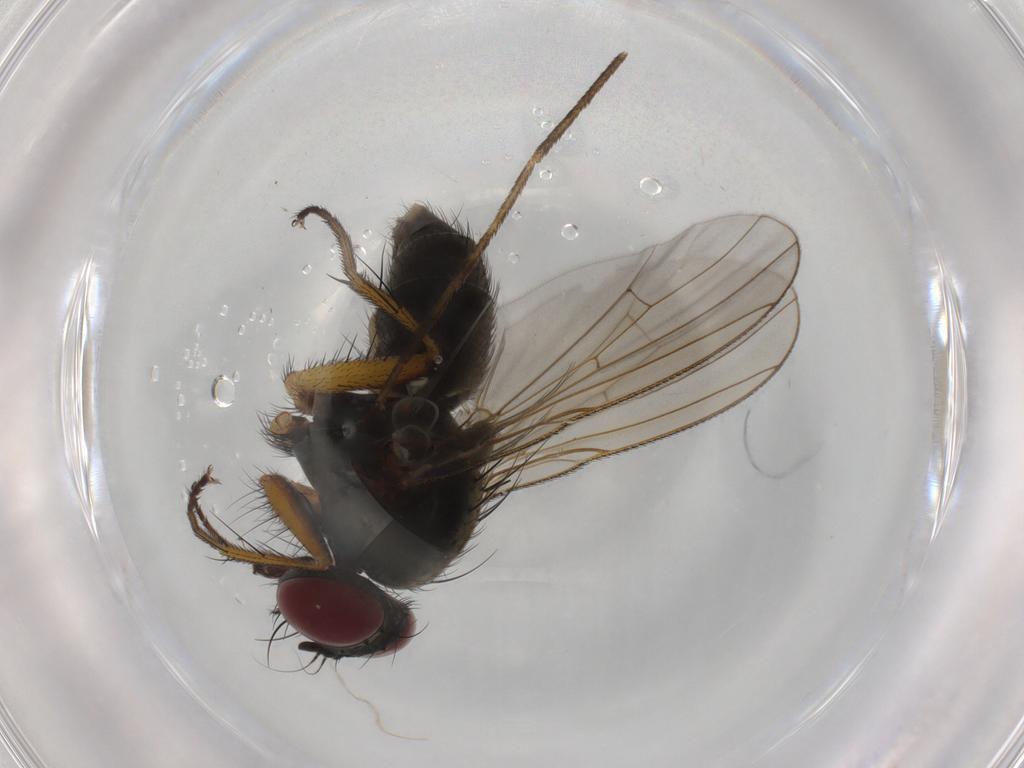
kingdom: Animalia
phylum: Arthropoda
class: Insecta
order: Diptera
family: Muscidae
